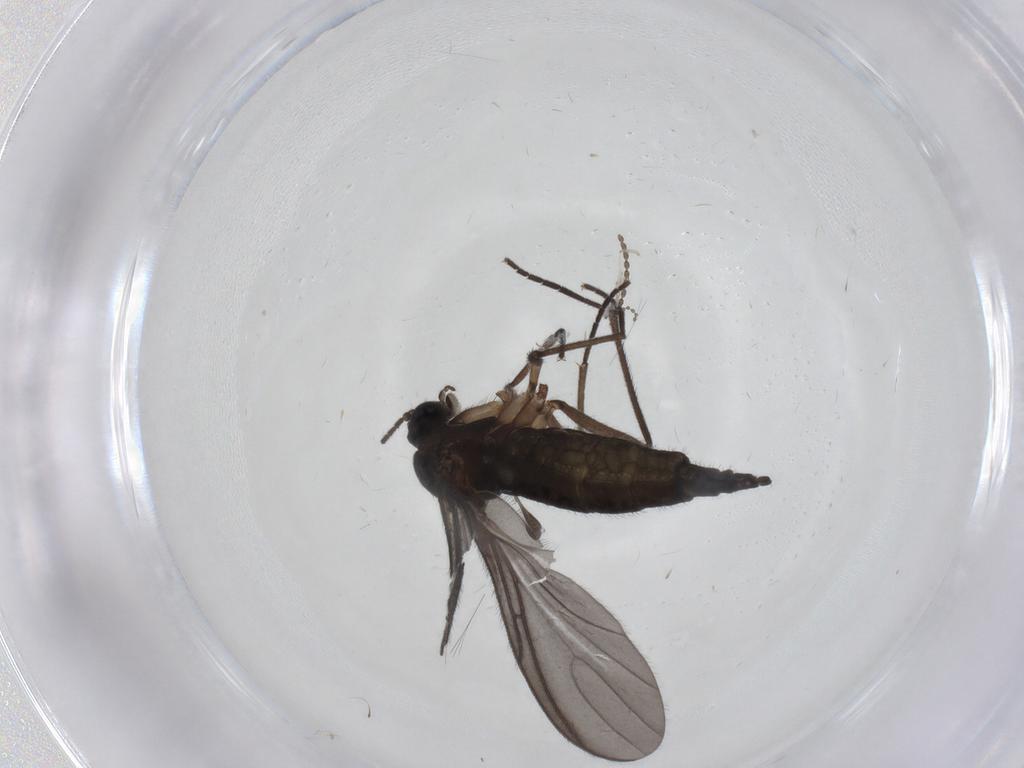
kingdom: Animalia
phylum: Arthropoda
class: Insecta
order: Diptera
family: Sciaridae
